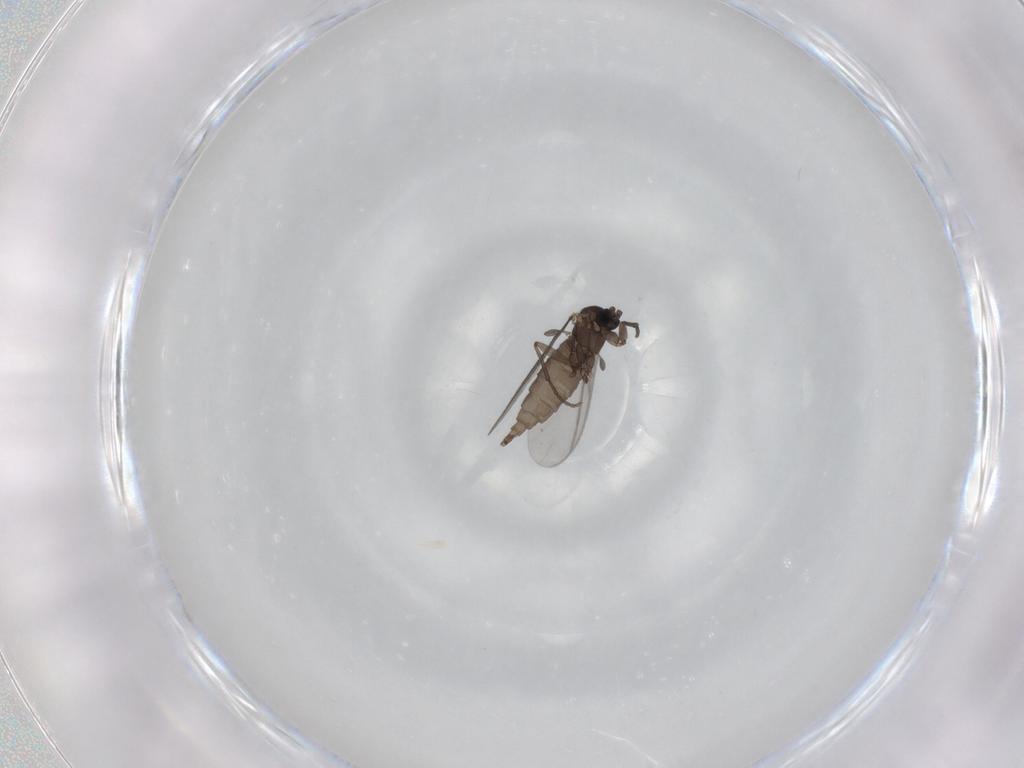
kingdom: Animalia
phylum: Arthropoda
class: Insecta
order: Diptera
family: Sciaridae
